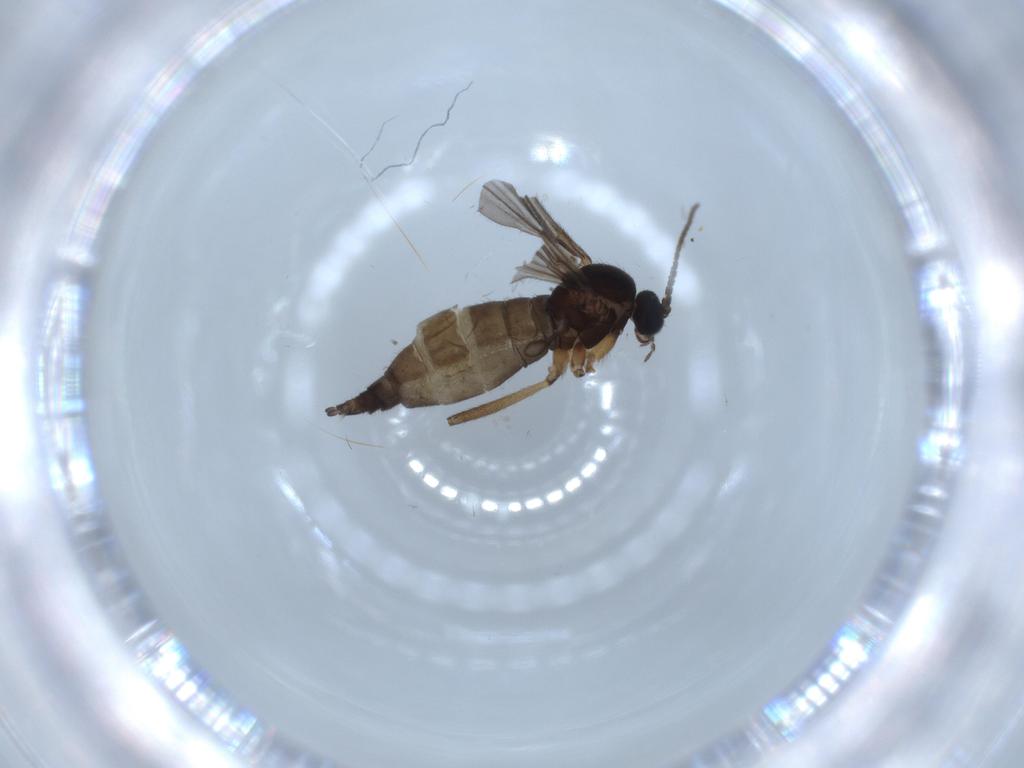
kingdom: Animalia
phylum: Arthropoda
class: Insecta
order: Diptera
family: Sciaridae
